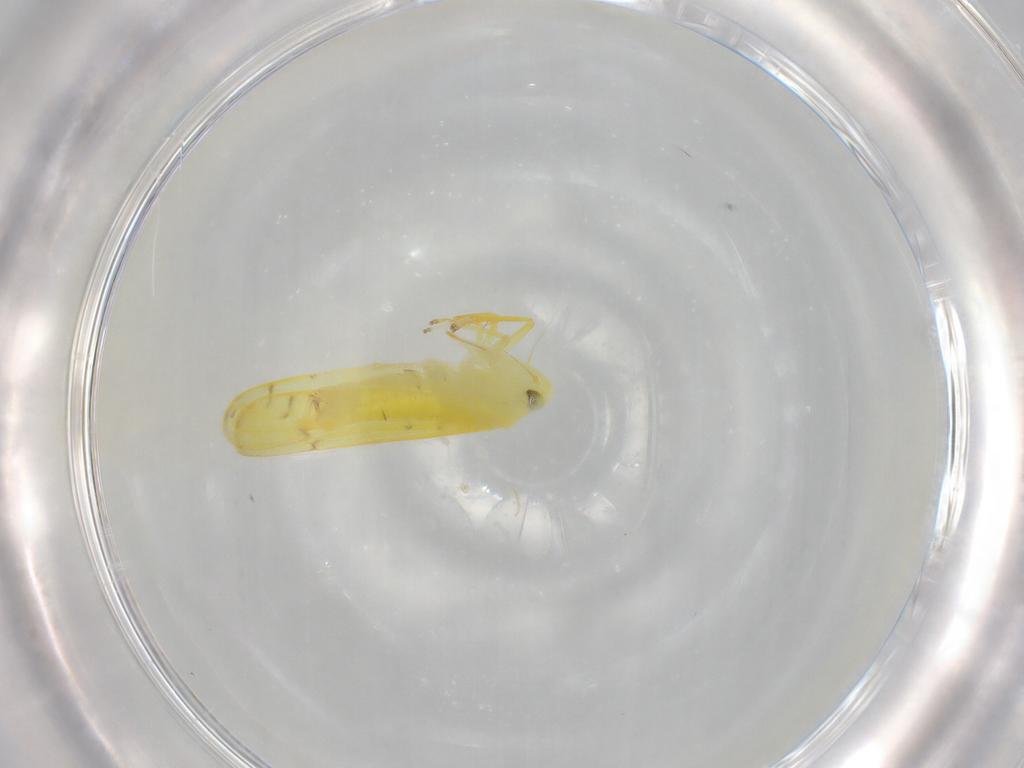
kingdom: Animalia
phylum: Arthropoda
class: Insecta
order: Hemiptera
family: Cicadellidae
